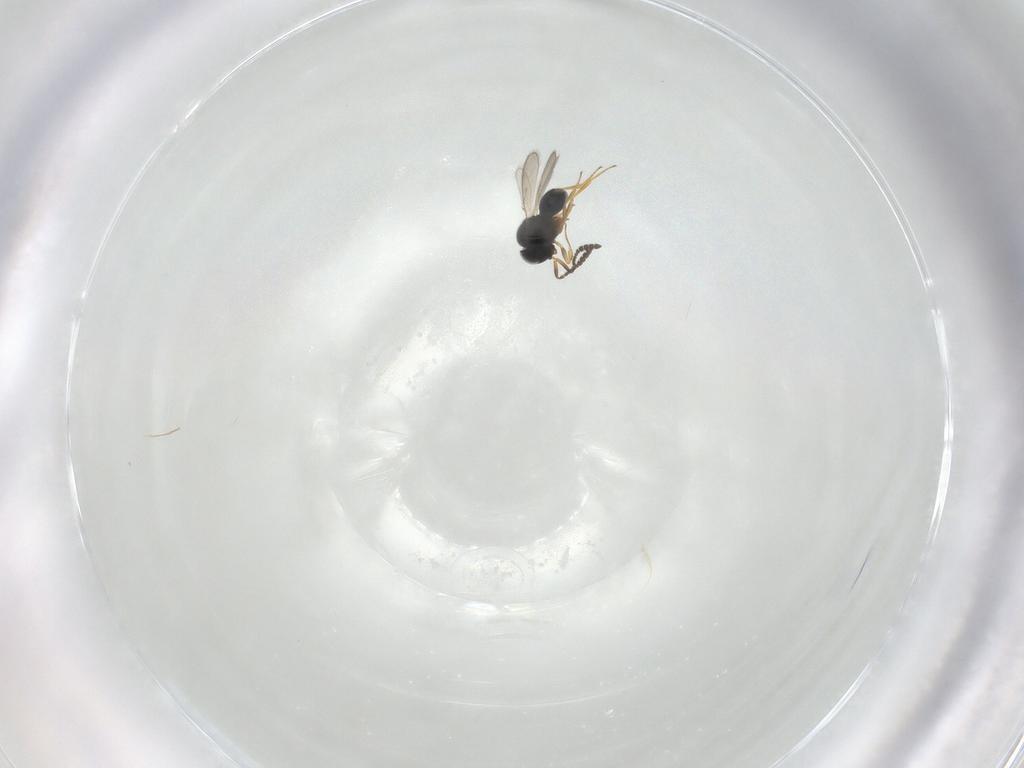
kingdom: Animalia
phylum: Arthropoda
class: Insecta
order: Hymenoptera
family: Scelionidae
